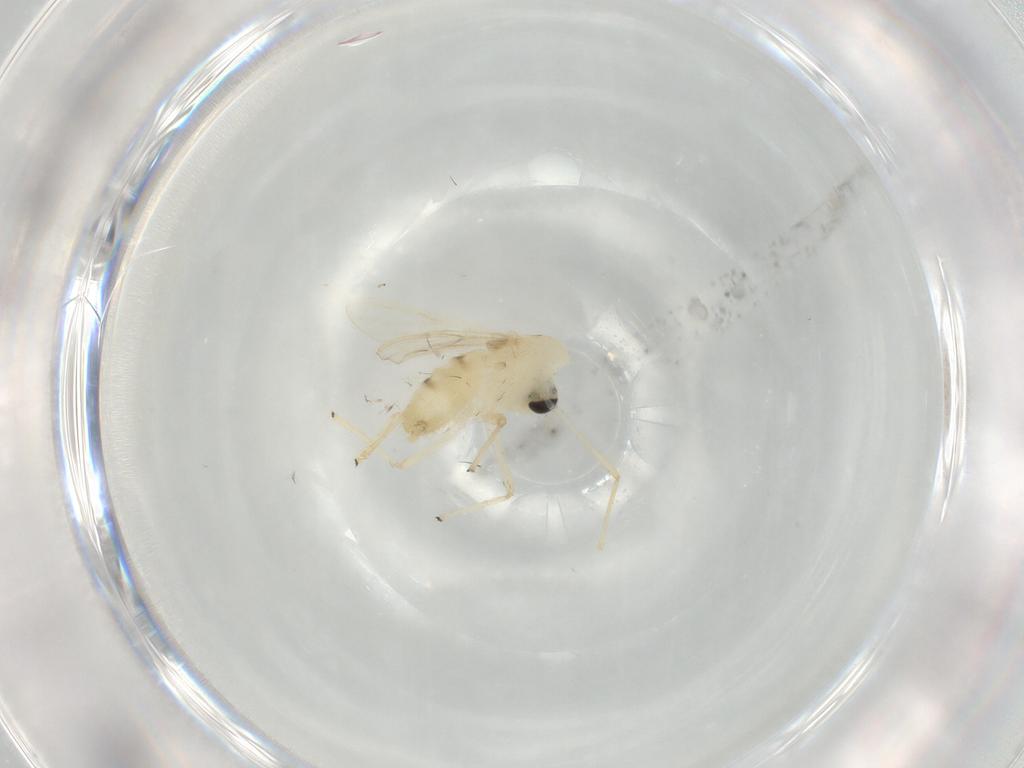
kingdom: Animalia
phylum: Arthropoda
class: Insecta
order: Diptera
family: Chironomidae
